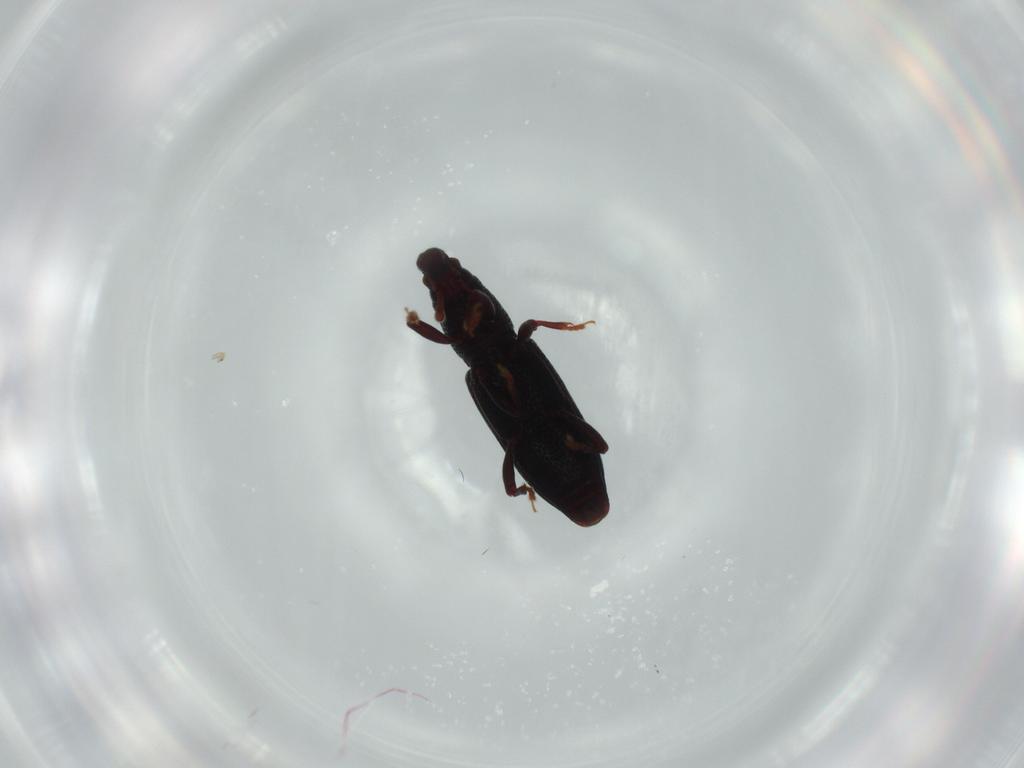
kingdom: Animalia
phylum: Arthropoda
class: Insecta
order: Coleoptera
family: Curculionidae
